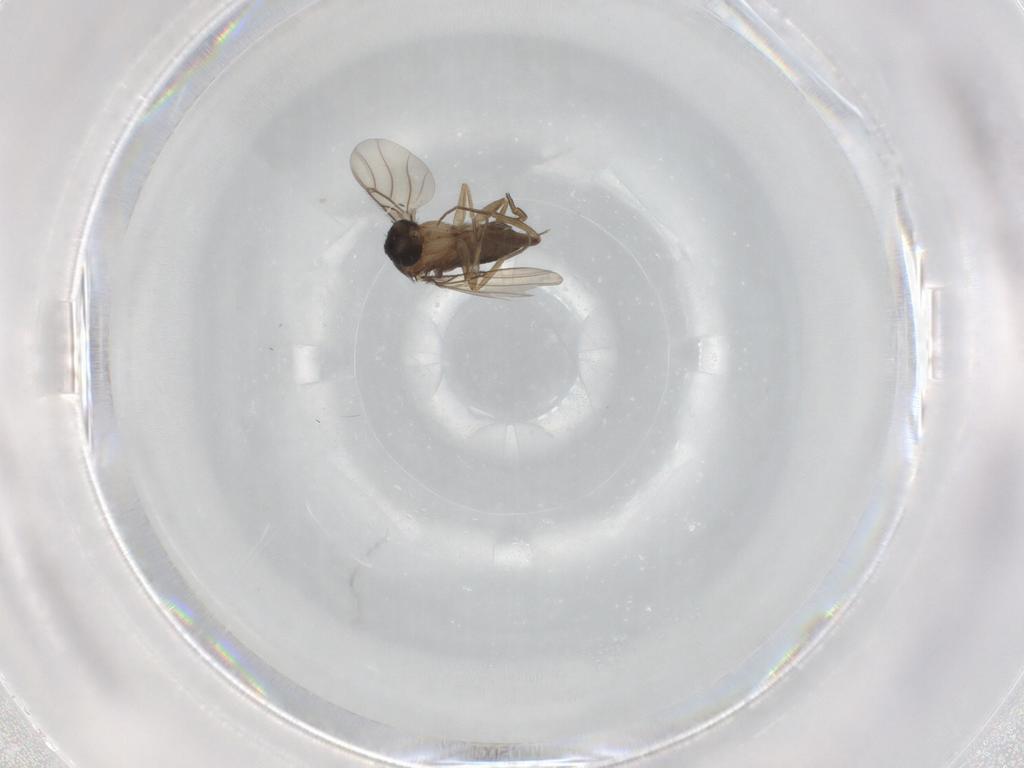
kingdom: Animalia
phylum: Arthropoda
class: Insecta
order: Diptera
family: Phoridae
